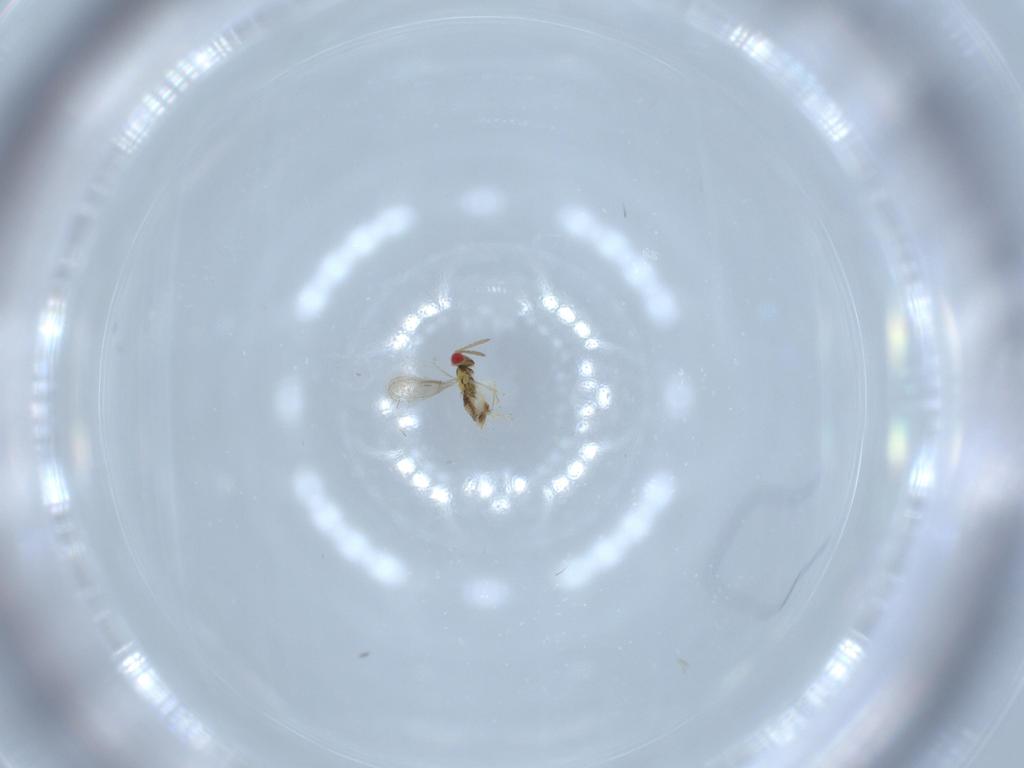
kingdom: Animalia
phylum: Arthropoda
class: Insecta
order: Hymenoptera
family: Aphelinidae
